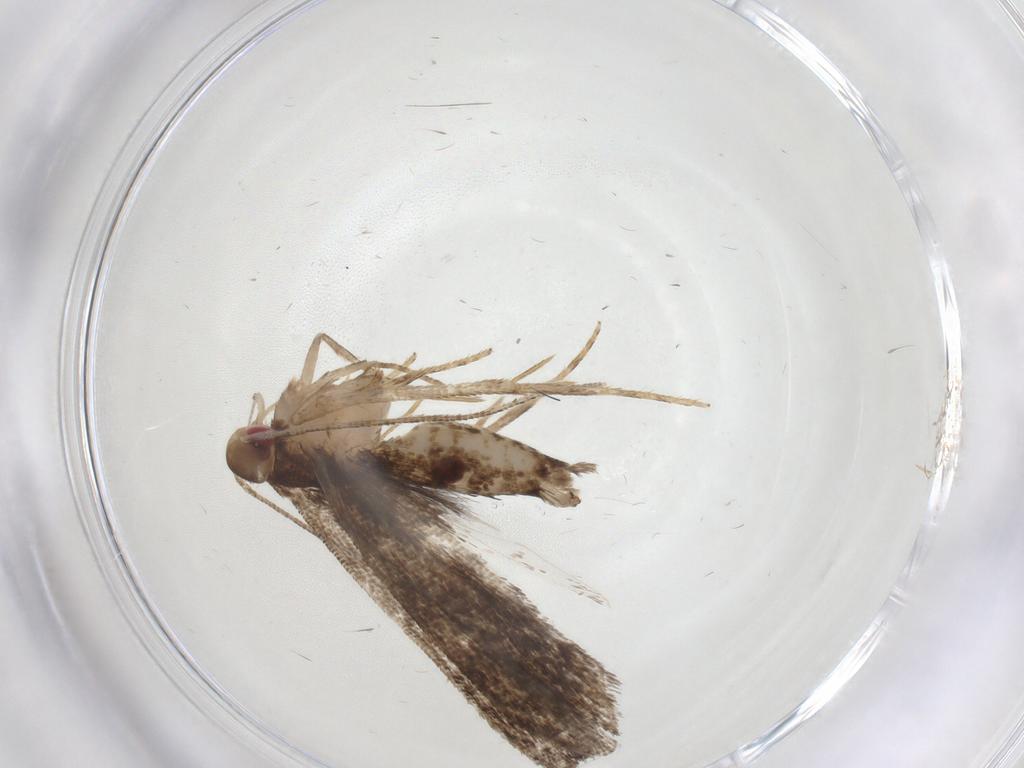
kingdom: Animalia
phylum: Arthropoda
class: Insecta
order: Lepidoptera
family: Gelechiidae
